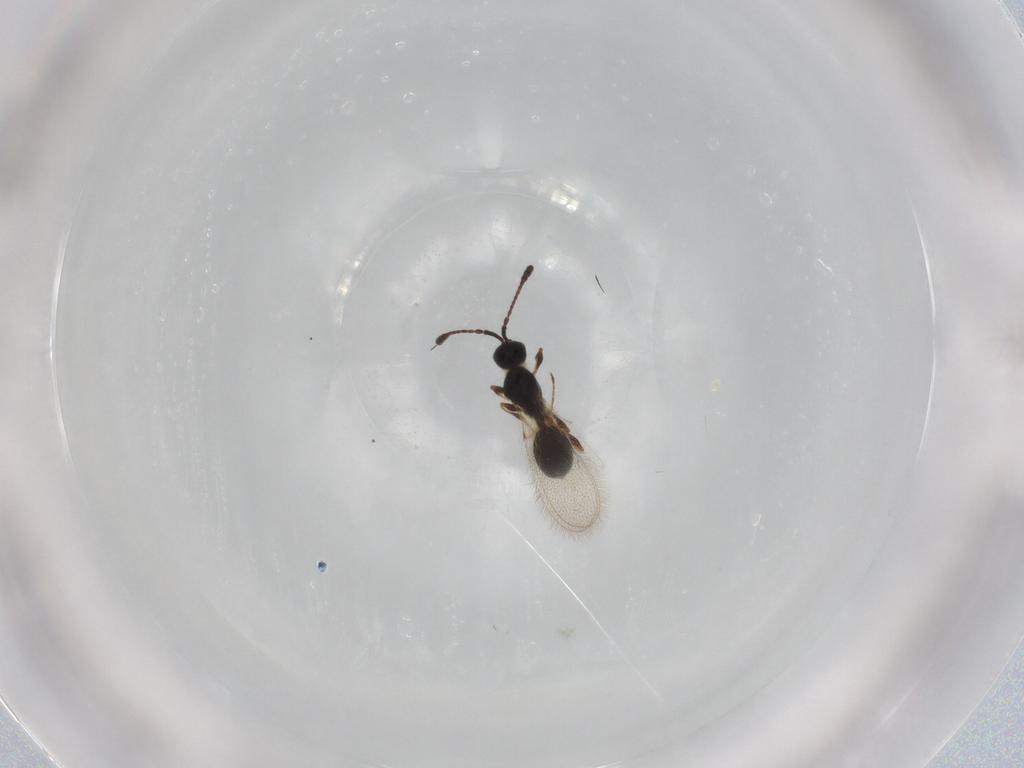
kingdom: Animalia
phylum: Arthropoda
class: Insecta
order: Hymenoptera
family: Diapriidae
